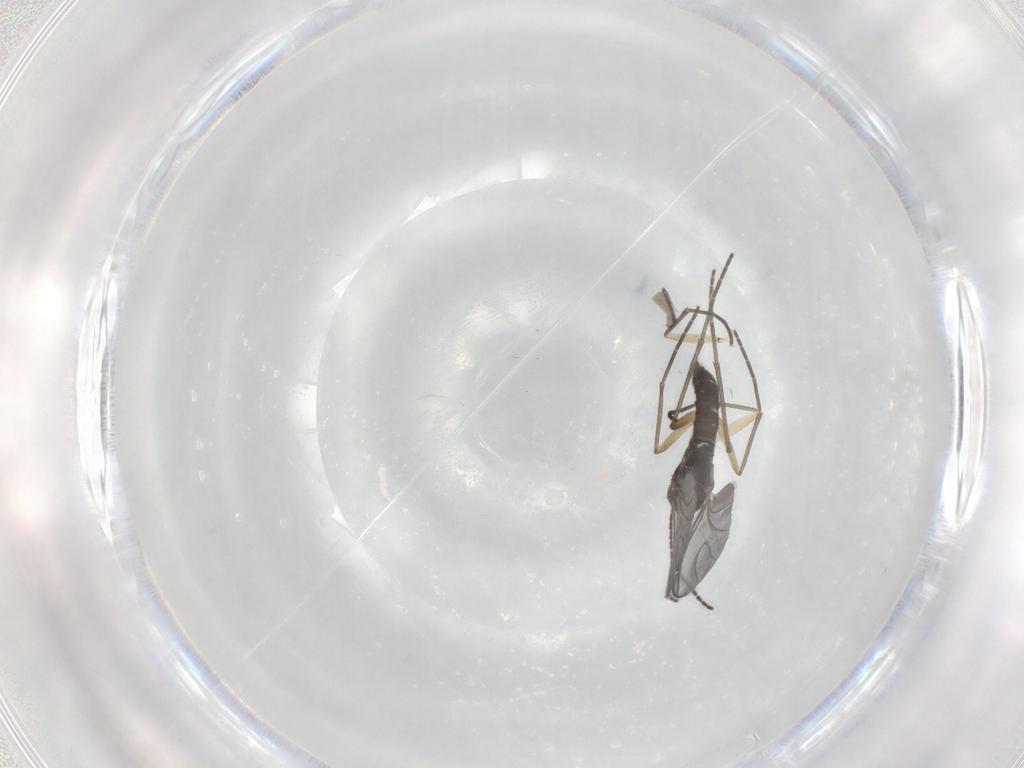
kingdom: Animalia
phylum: Arthropoda
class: Insecta
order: Diptera
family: Sciaridae
